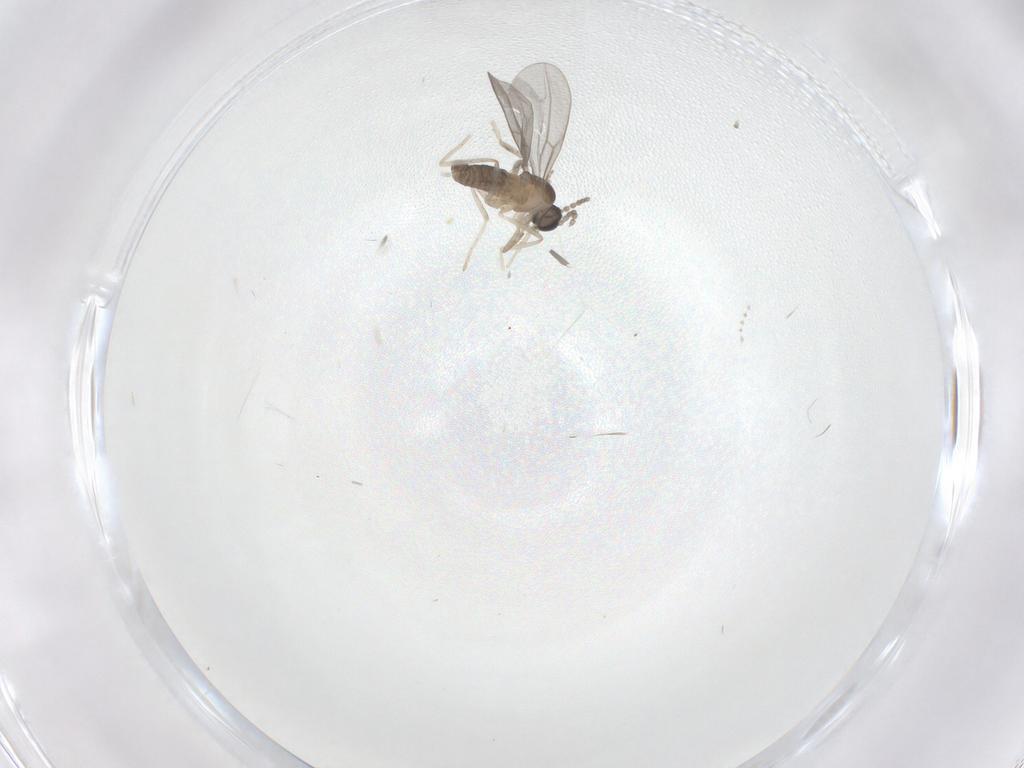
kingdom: Animalia
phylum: Arthropoda
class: Insecta
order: Diptera
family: Cecidomyiidae
